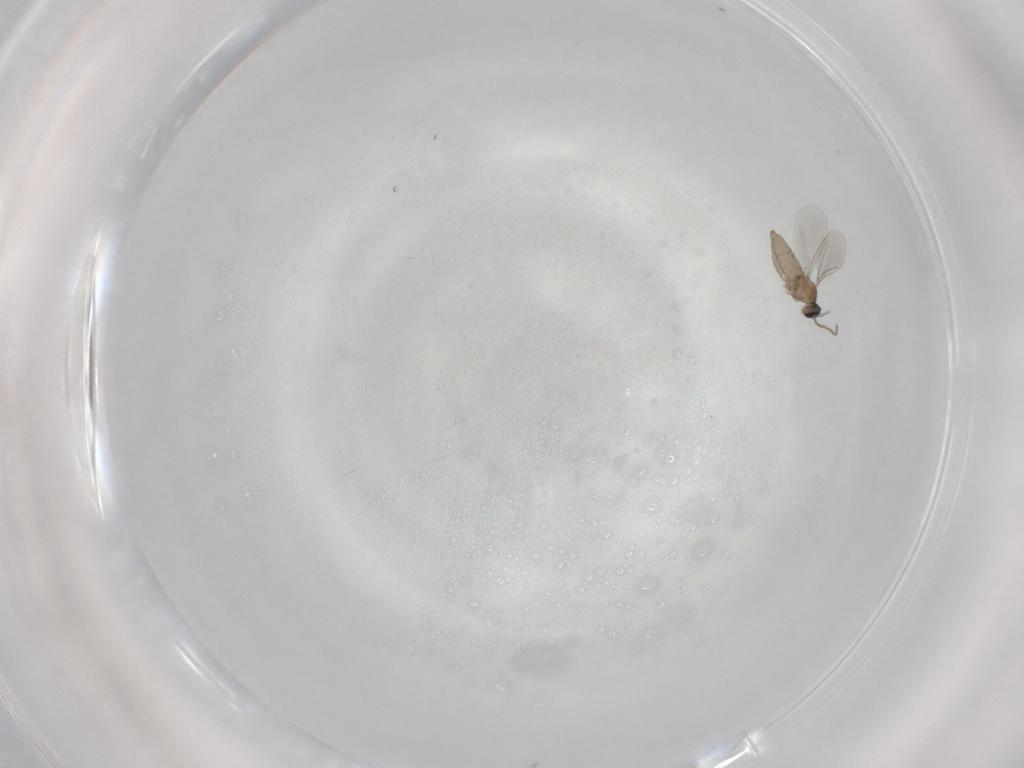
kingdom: Animalia
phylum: Arthropoda
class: Insecta
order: Diptera
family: Cecidomyiidae
